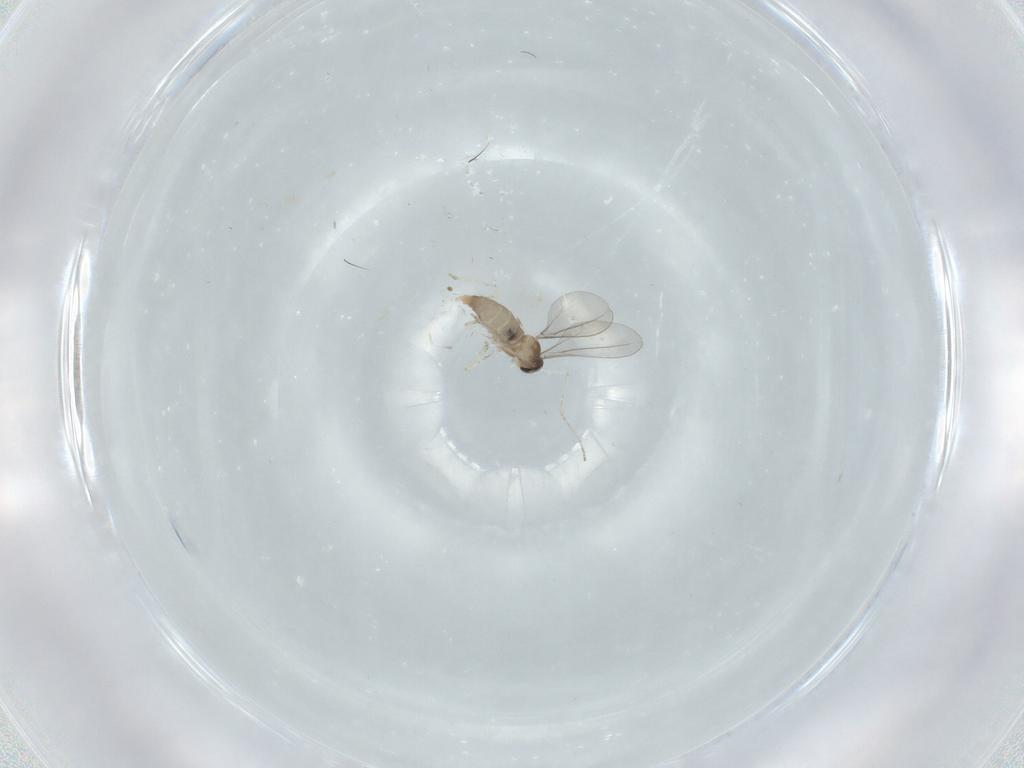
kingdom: Animalia
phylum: Arthropoda
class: Insecta
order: Diptera
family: Cecidomyiidae
